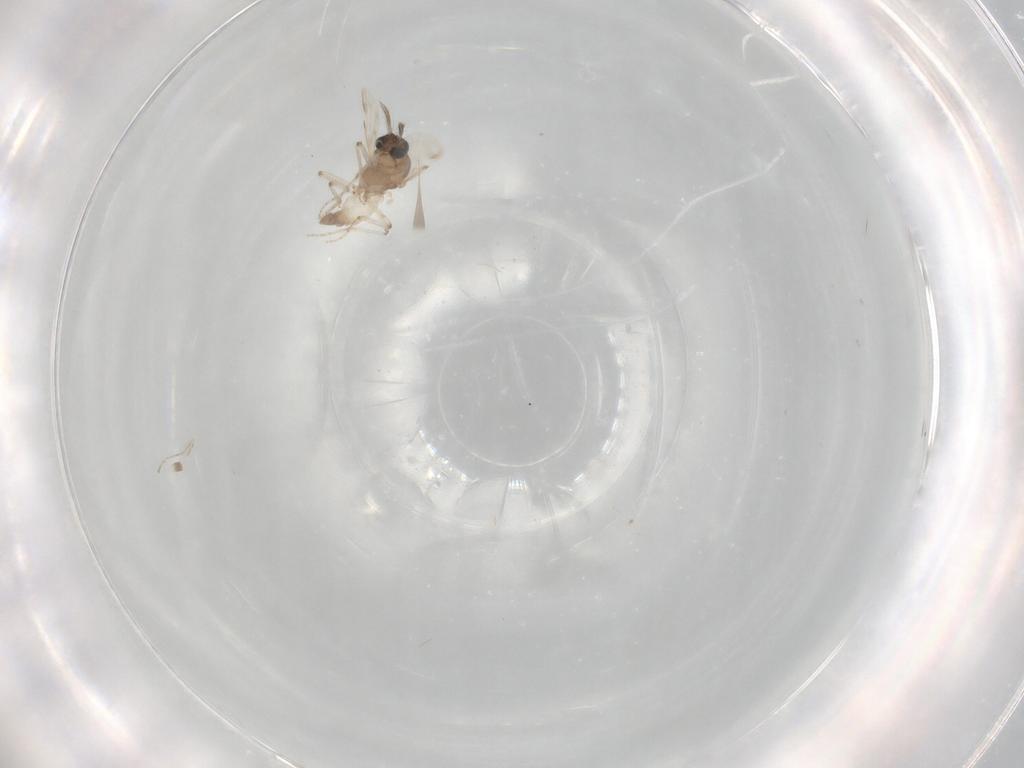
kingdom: Animalia
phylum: Arthropoda
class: Insecta
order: Diptera
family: Ceratopogonidae
